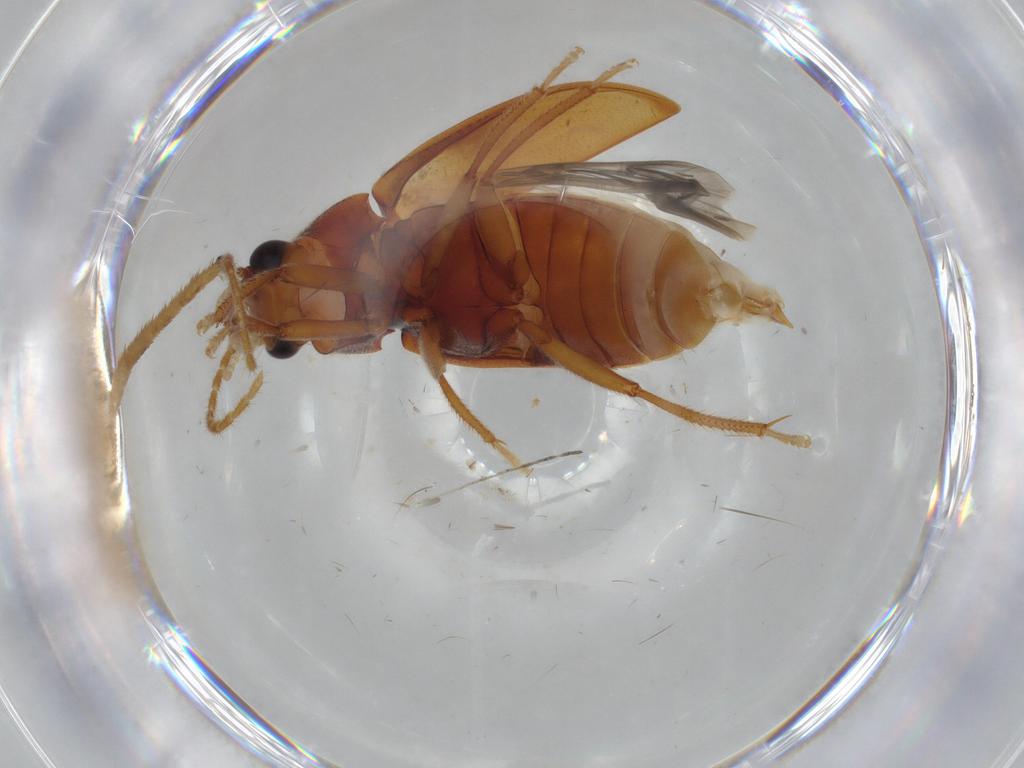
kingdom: Animalia
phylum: Arthropoda
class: Insecta
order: Coleoptera
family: Ptilodactylidae
